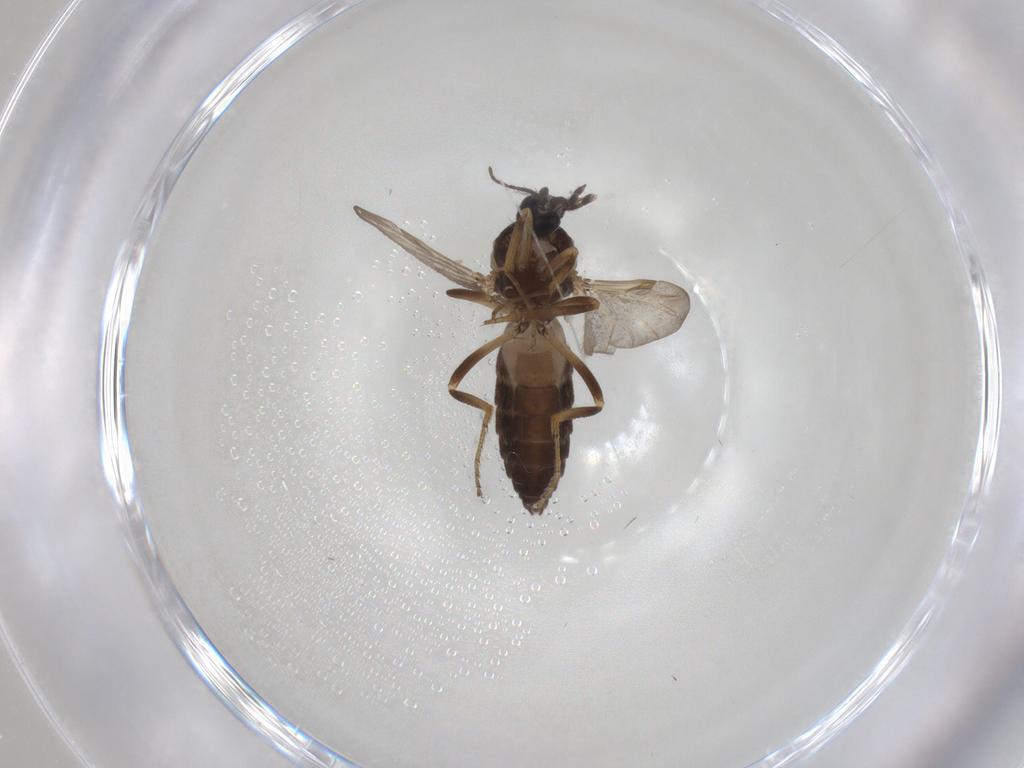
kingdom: Animalia
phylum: Arthropoda
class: Insecta
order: Diptera
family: Ceratopogonidae
